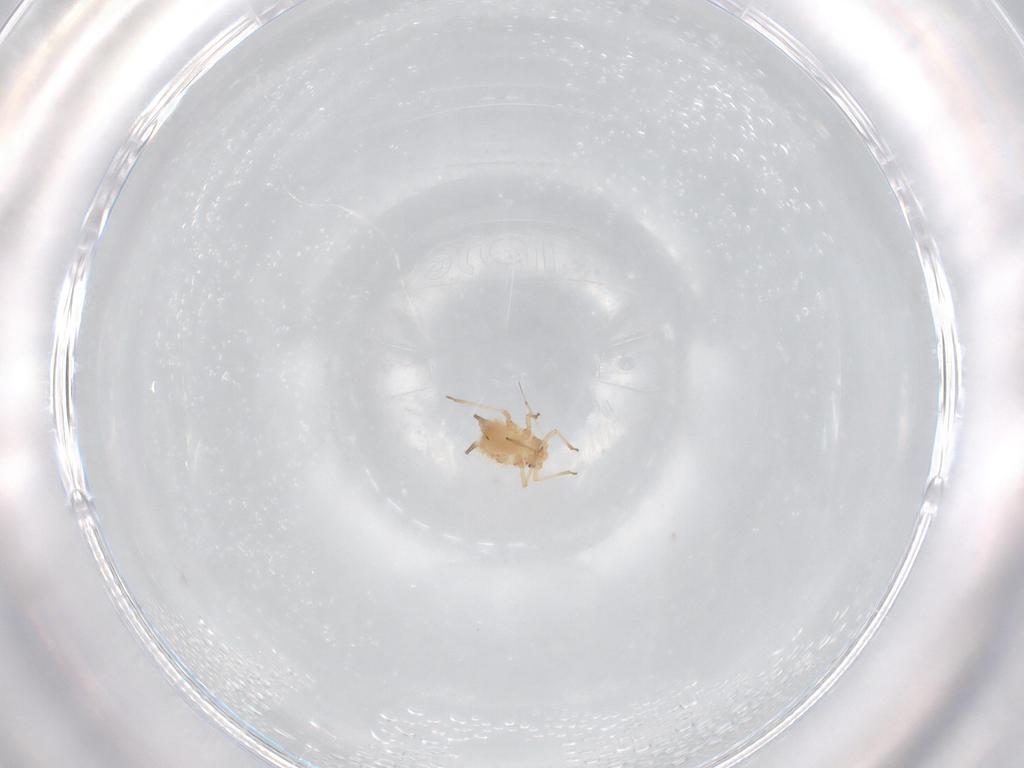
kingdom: Animalia
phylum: Arthropoda
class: Insecta
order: Hemiptera
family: Aphididae
